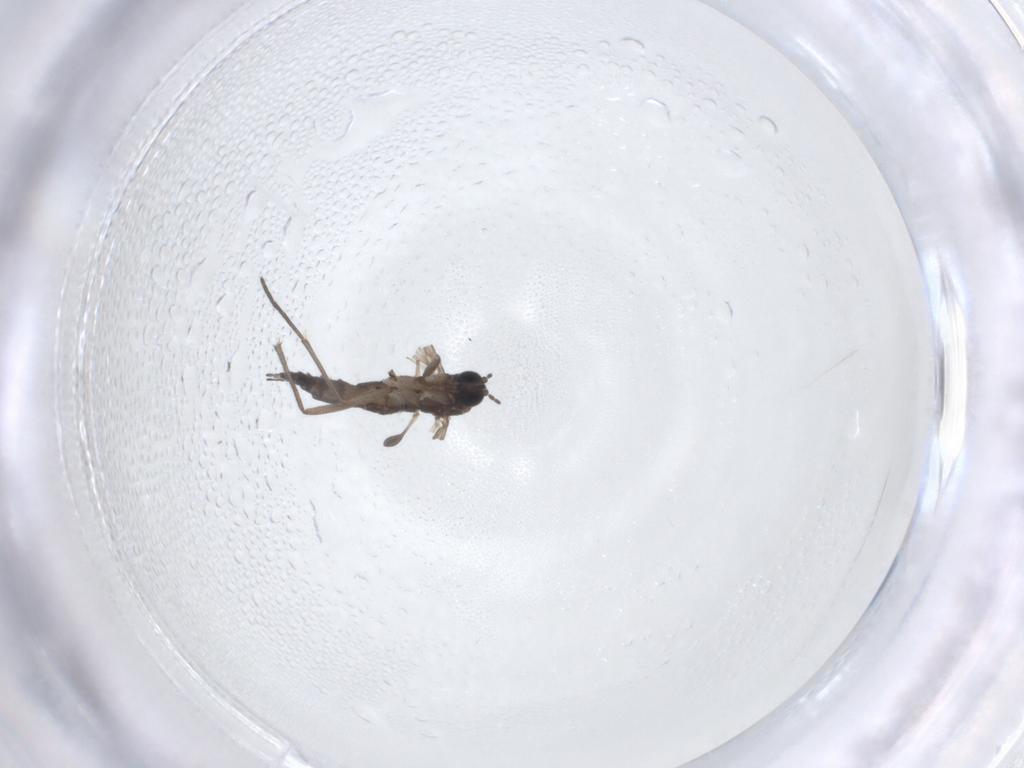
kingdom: Animalia
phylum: Arthropoda
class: Insecta
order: Diptera
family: Sciaridae
